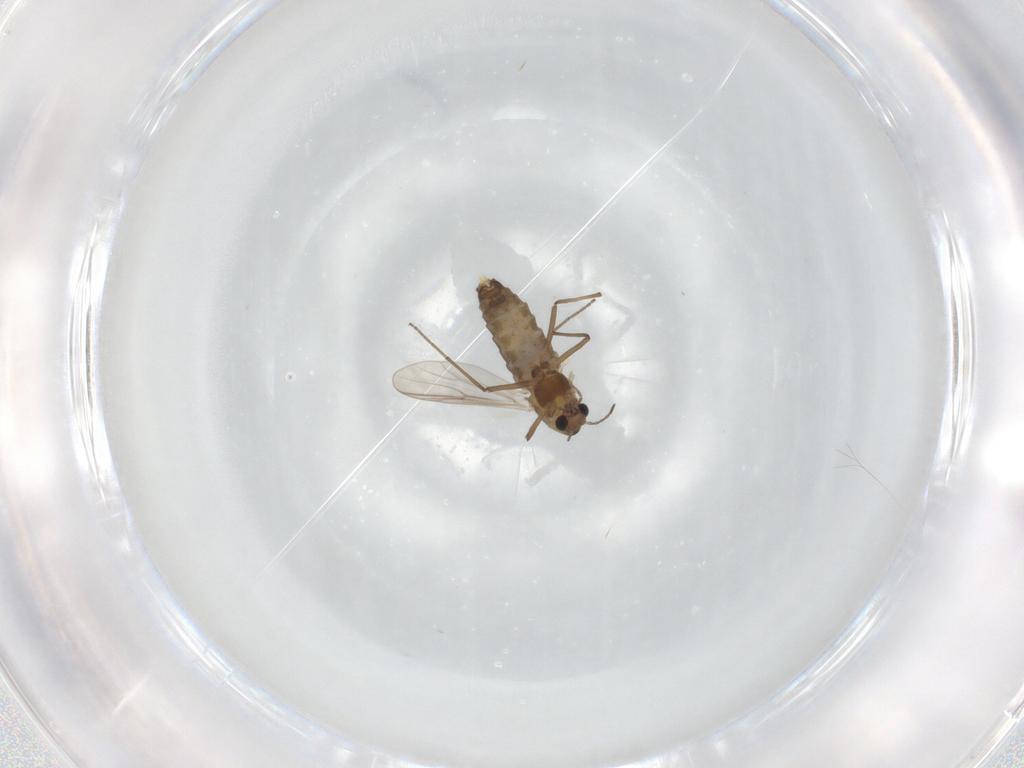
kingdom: Animalia
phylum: Arthropoda
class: Insecta
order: Diptera
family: Chironomidae
